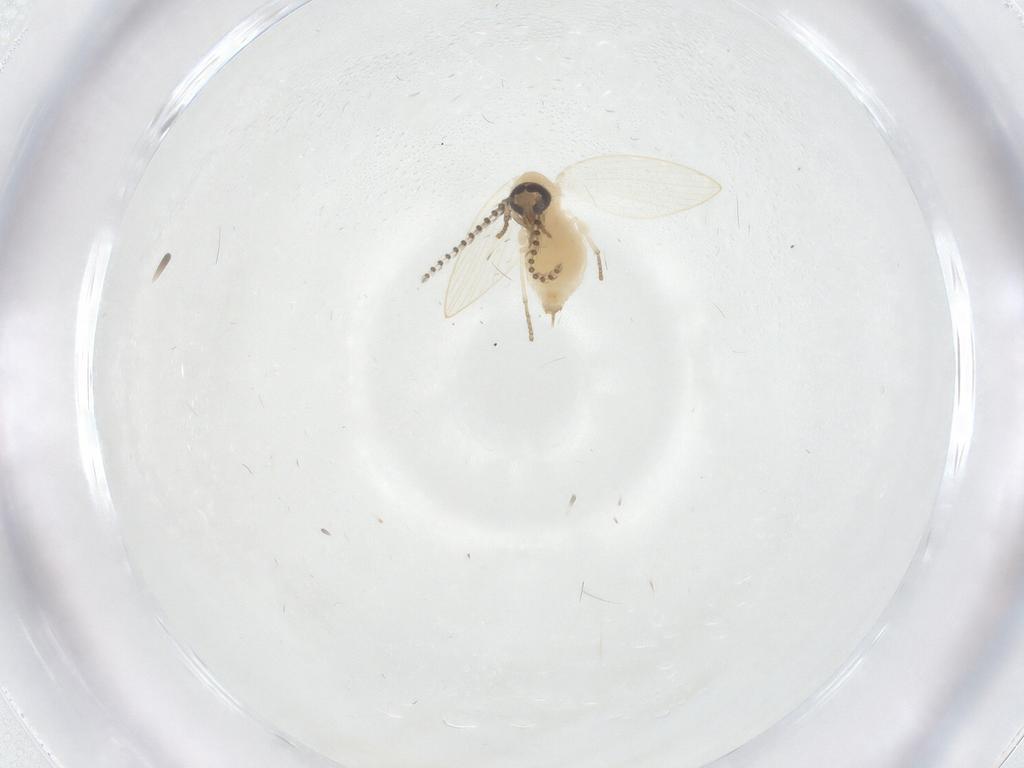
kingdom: Animalia
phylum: Arthropoda
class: Insecta
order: Diptera
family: Psychodidae
